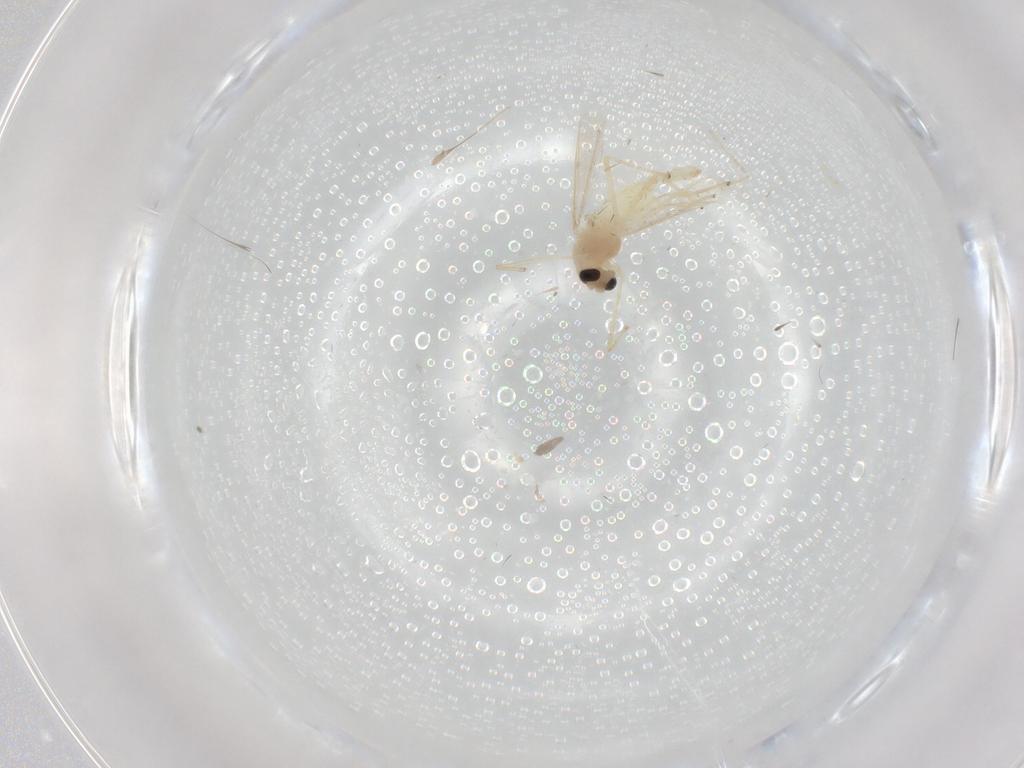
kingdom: Animalia
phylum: Arthropoda
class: Insecta
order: Diptera
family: Chironomidae
